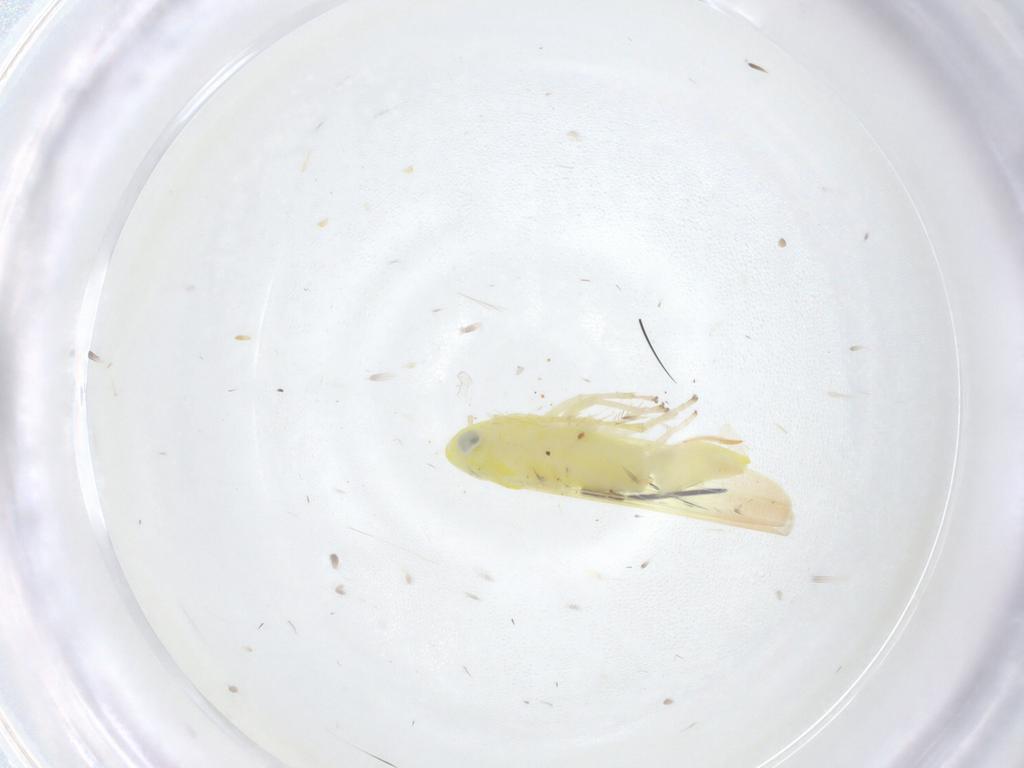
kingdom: Animalia
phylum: Arthropoda
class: Insecta
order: Hemiptera
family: Cicadellidae
